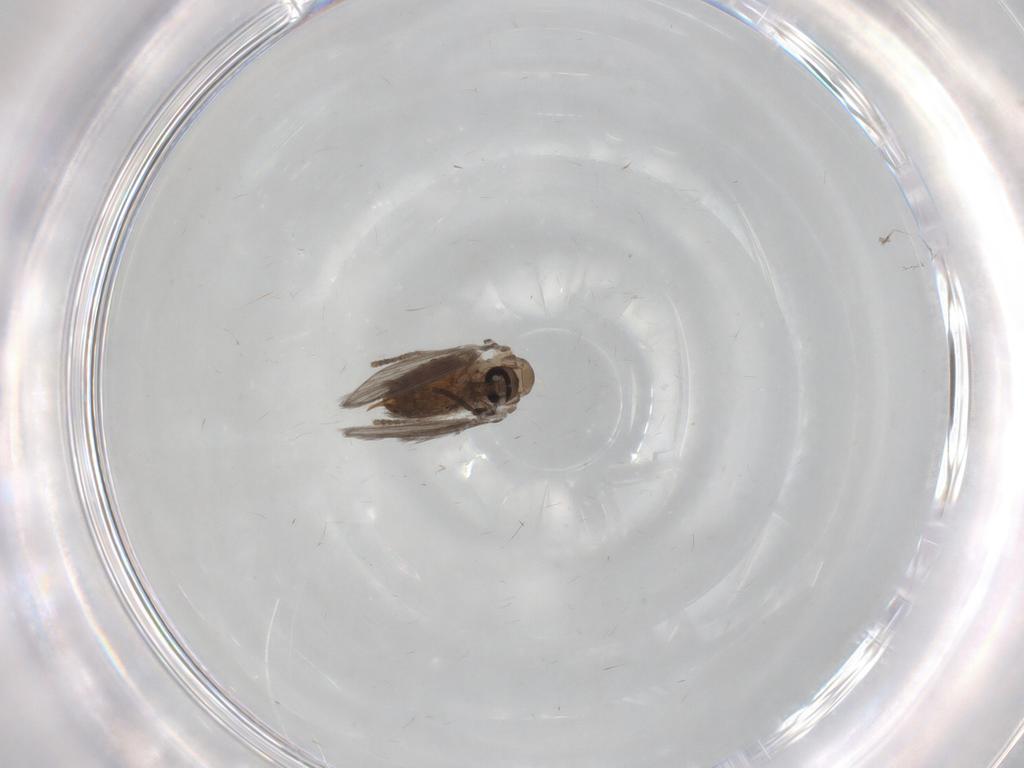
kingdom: Animalia
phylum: Arthropoda
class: Insecta
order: Diptera
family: Psychodidae
